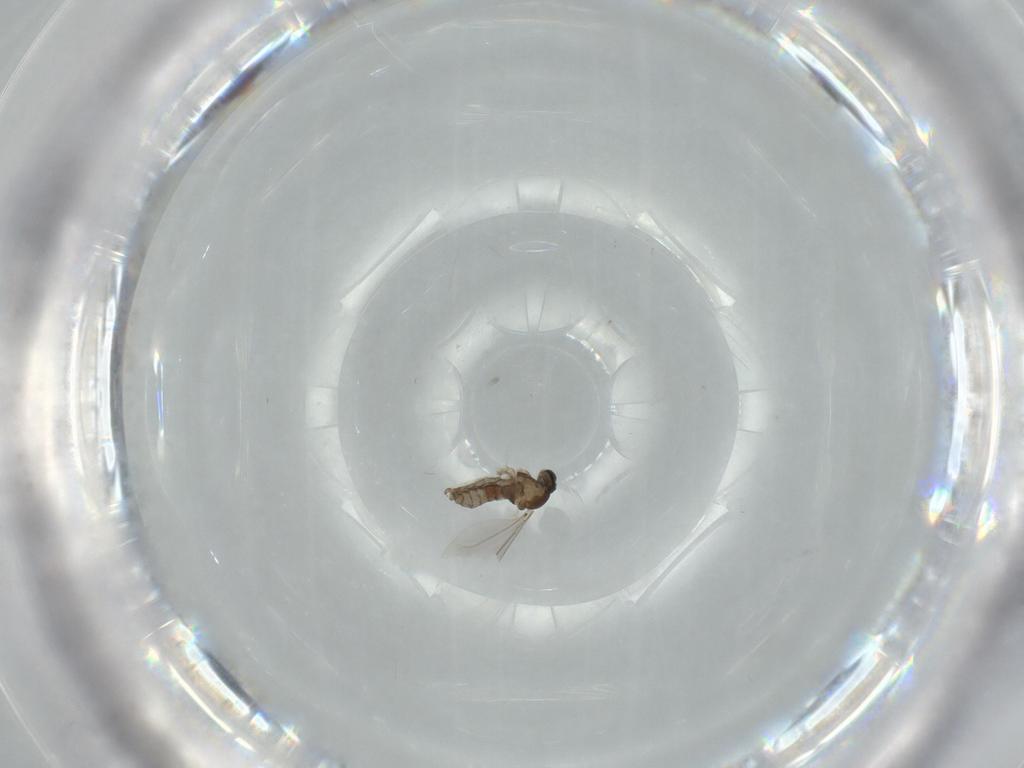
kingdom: Animalia
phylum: Arthropoda
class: Insecta
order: Diptera
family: Cecidomyiidae
